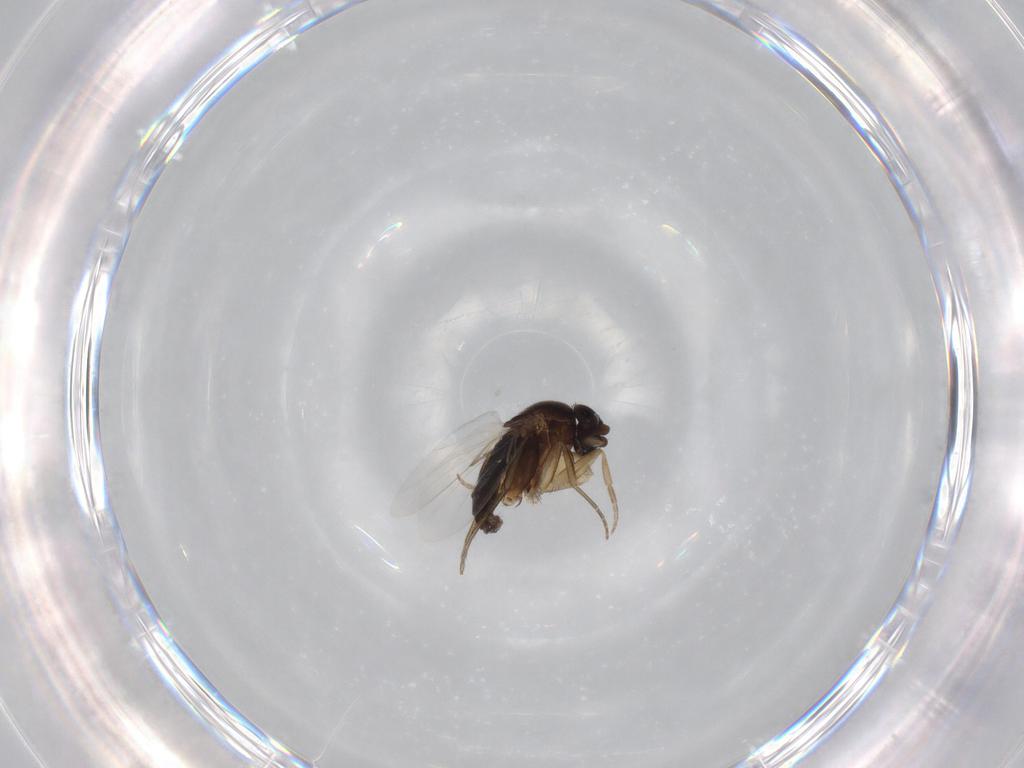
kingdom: Animalia
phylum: Arthropoda
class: Insecta
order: Diptera
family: Phoridae
